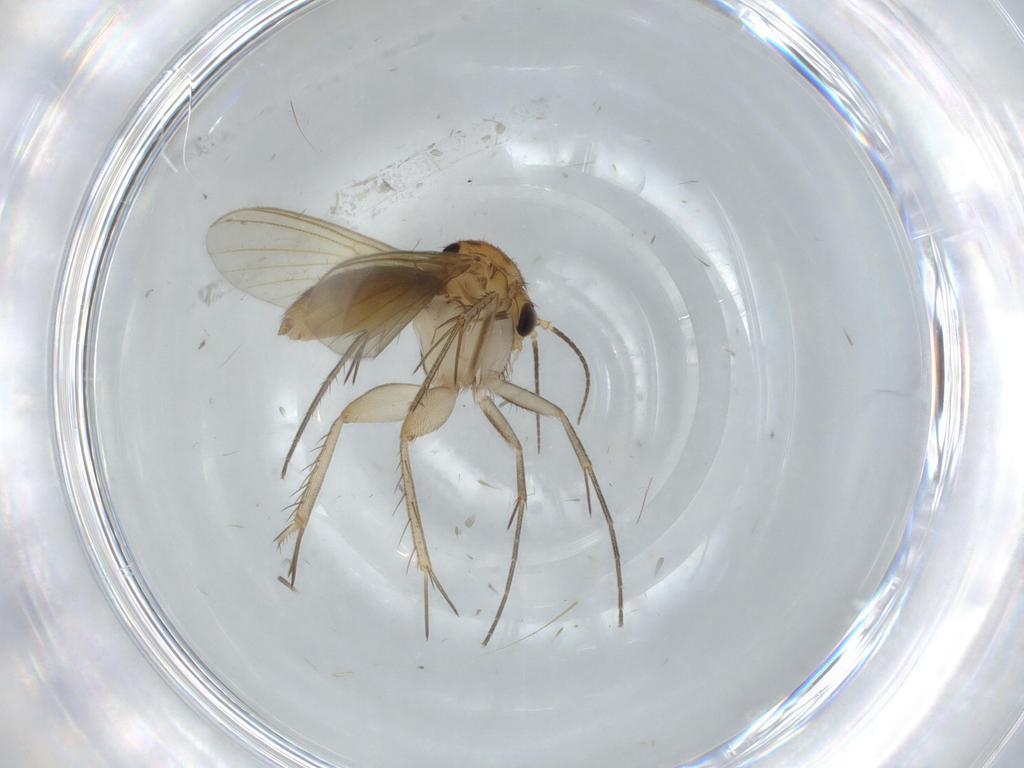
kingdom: Animalia
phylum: Arthropoda
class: Insecta
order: Diptera
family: Mycetophilidae
